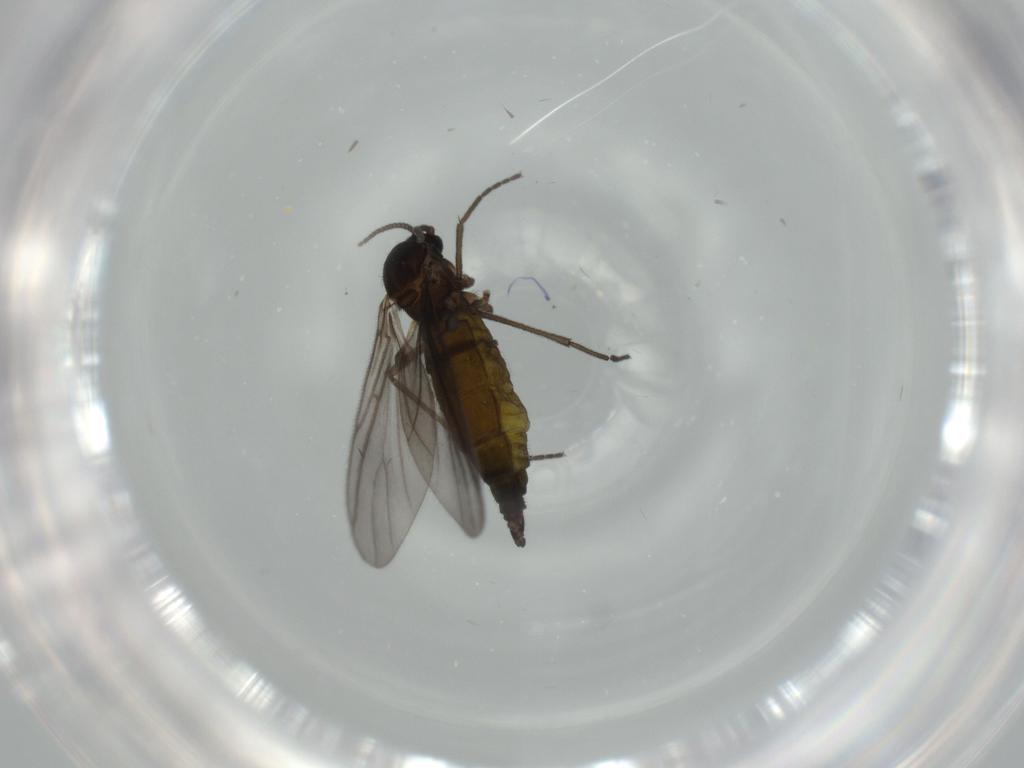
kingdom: Animalia
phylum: Arthropoda
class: Insecta
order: Diptera
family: Sciaridae
